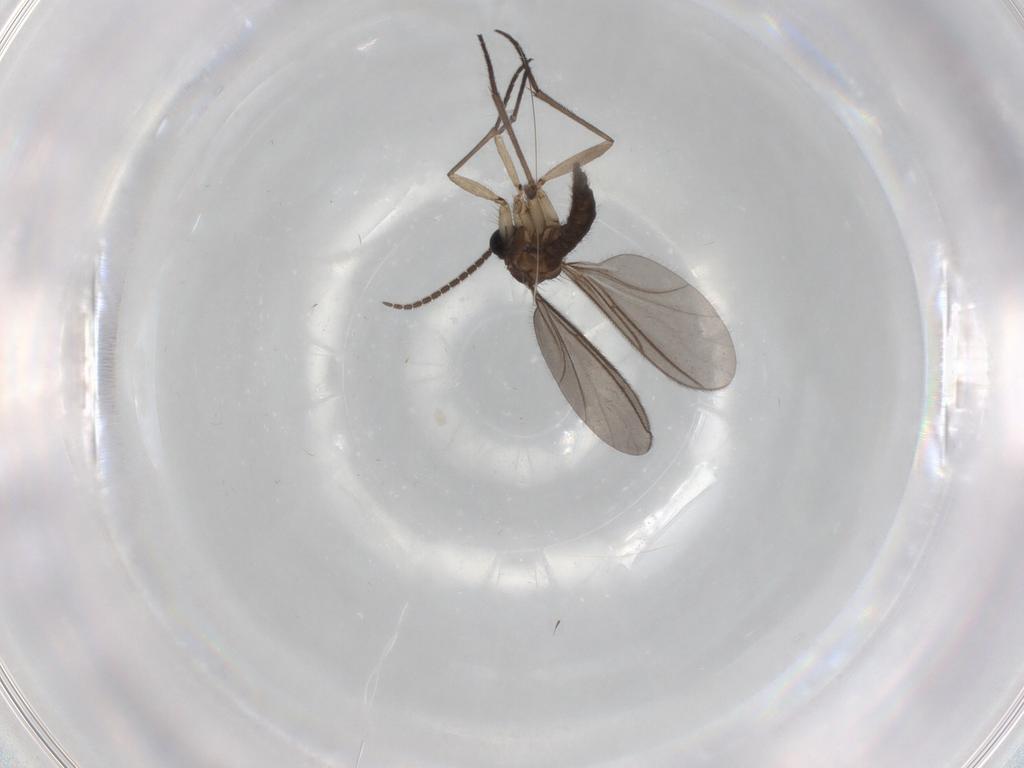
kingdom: Animalia
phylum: Arthropoda
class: Insecta
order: Diptera
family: Sciaridae
